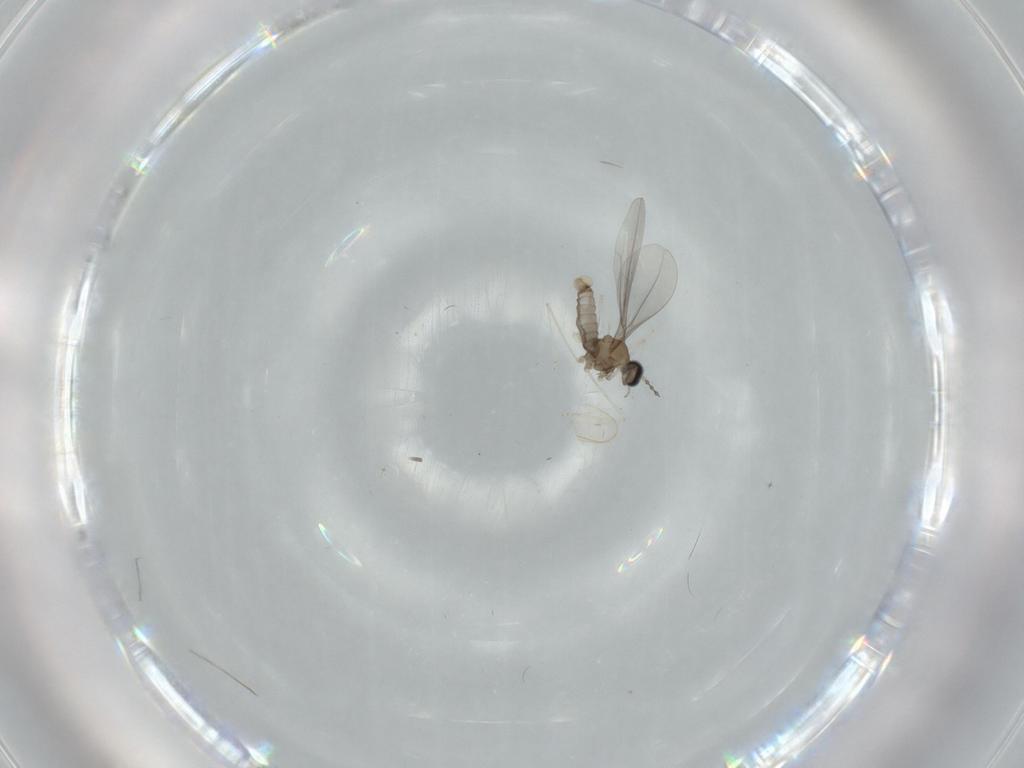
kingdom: Animalia
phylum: Arthropoda
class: Insecta
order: Diptera
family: Cecidomyiidae
